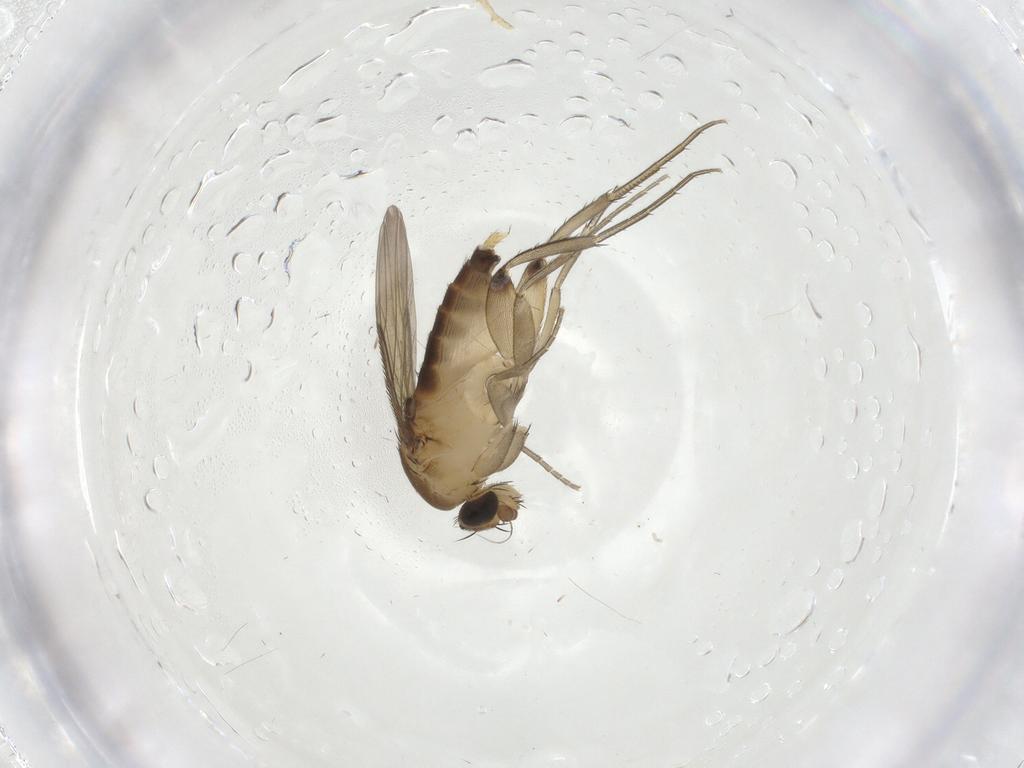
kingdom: Animalia
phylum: Arthropoda
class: Insecta
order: Diptera
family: Phoridae
